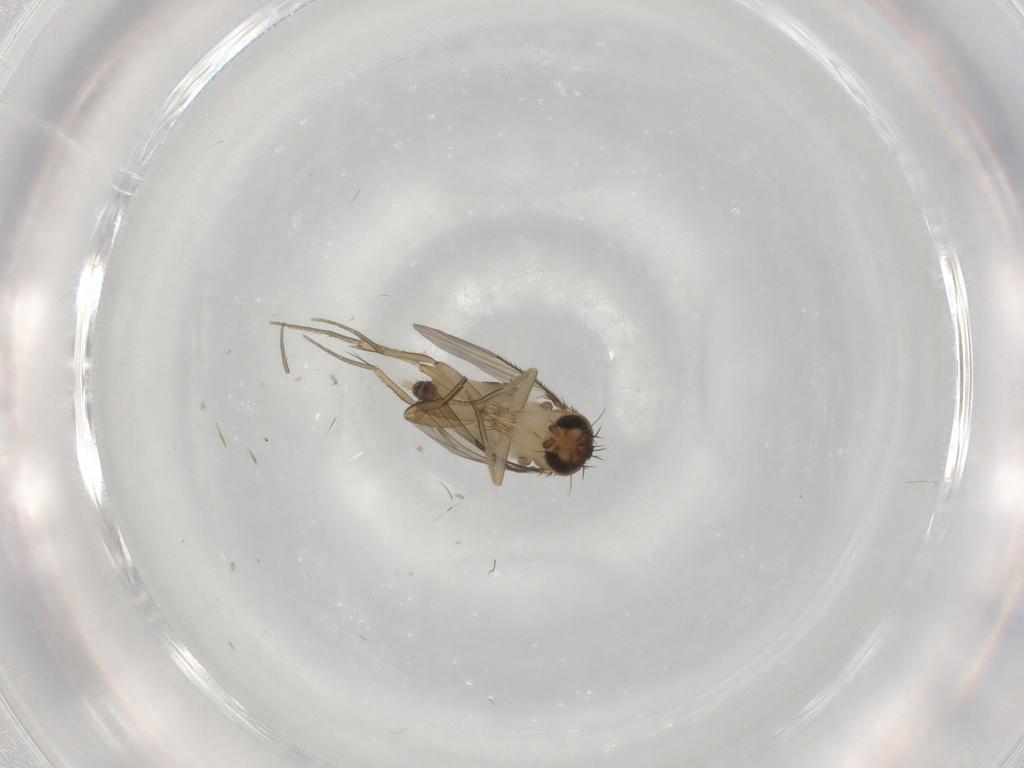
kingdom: Animalia
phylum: Arthropoda
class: Insecta
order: Diptera
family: Phoridae
